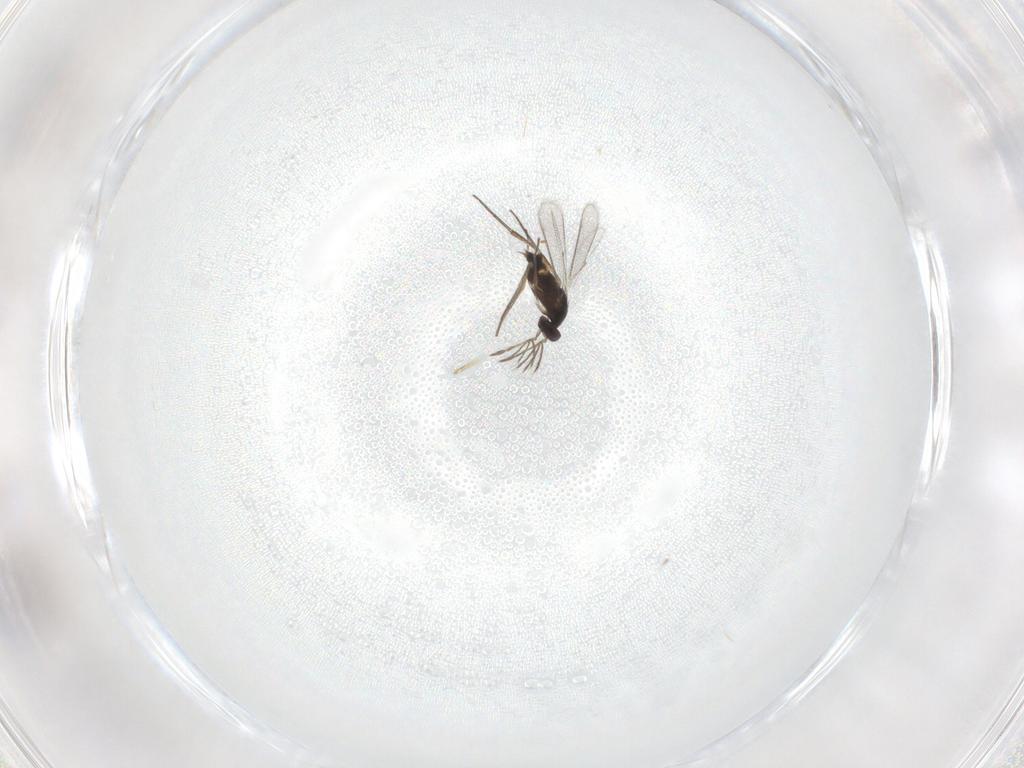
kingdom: Animalia
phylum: Arthropoda
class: Insecta
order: Hymenoptera
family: Eulophidae
